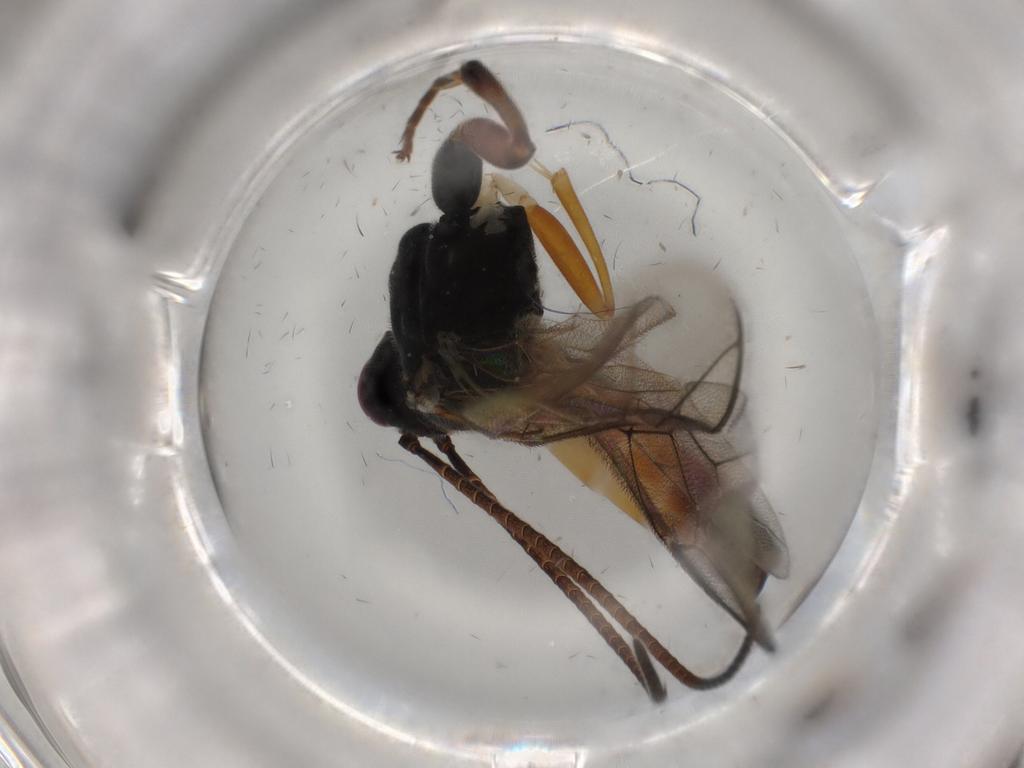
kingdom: Animalia
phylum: Arthropoda
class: Insecta
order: Hymenoptera
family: Ichneumonidae
